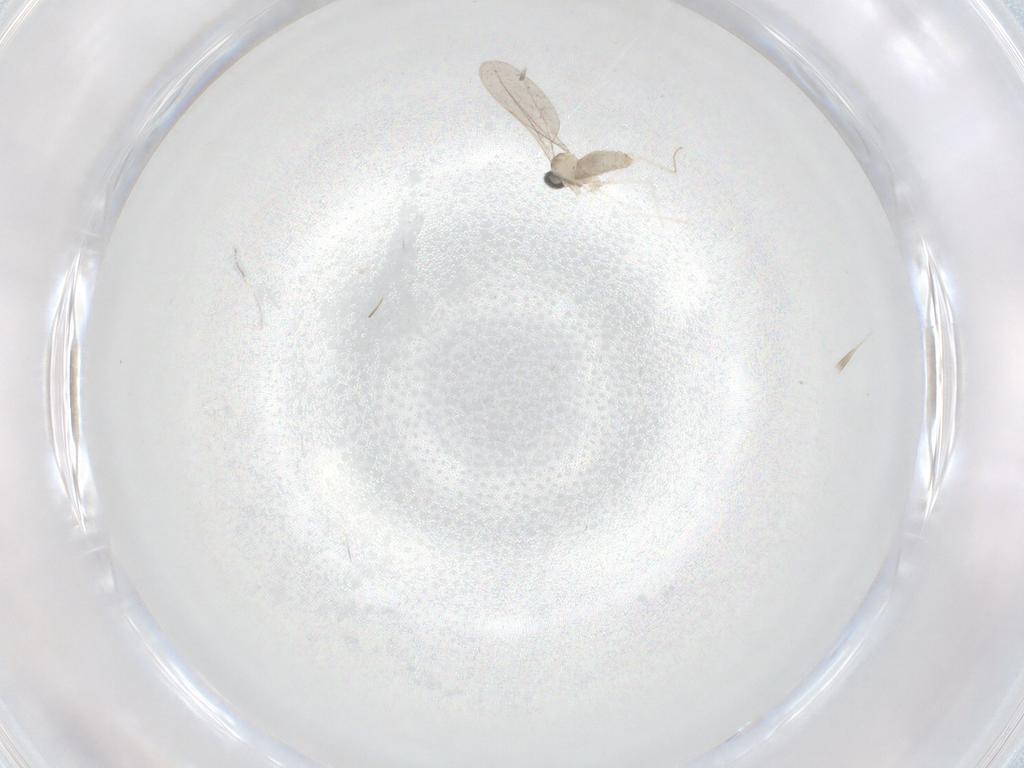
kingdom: Animalia
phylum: Arthropoda
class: Insecta
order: Diptera
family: Cecidomyiidae
